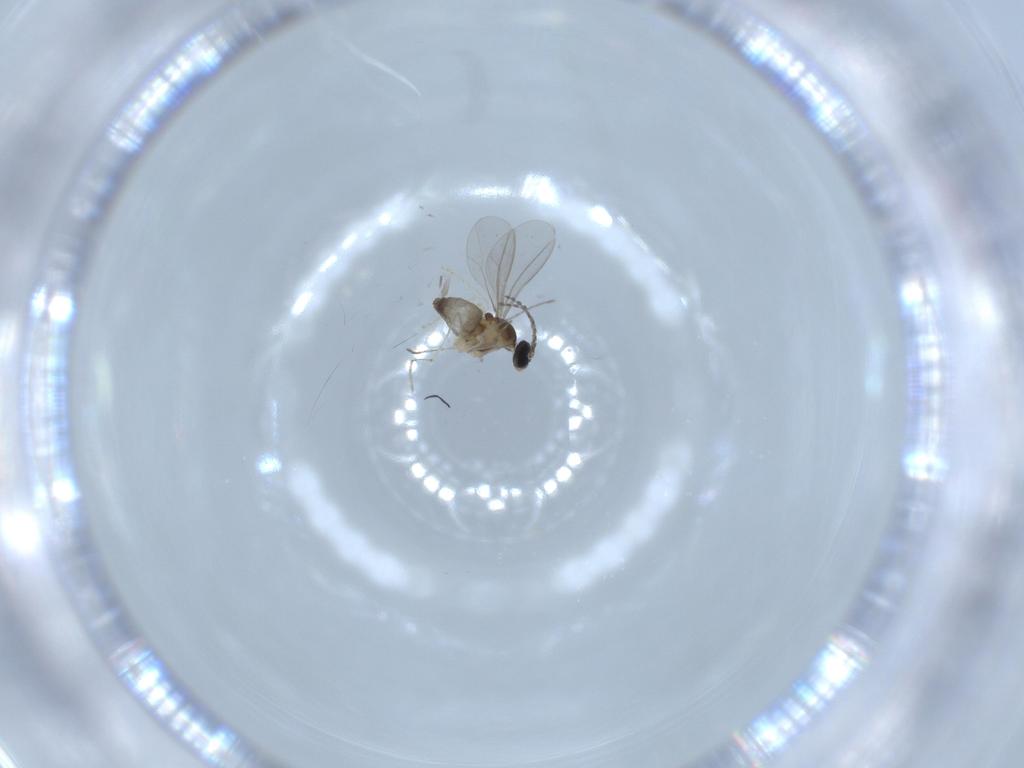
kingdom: Animalia
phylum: Arthropoda
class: Insecta
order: Diptera
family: Cecidomyiidae
